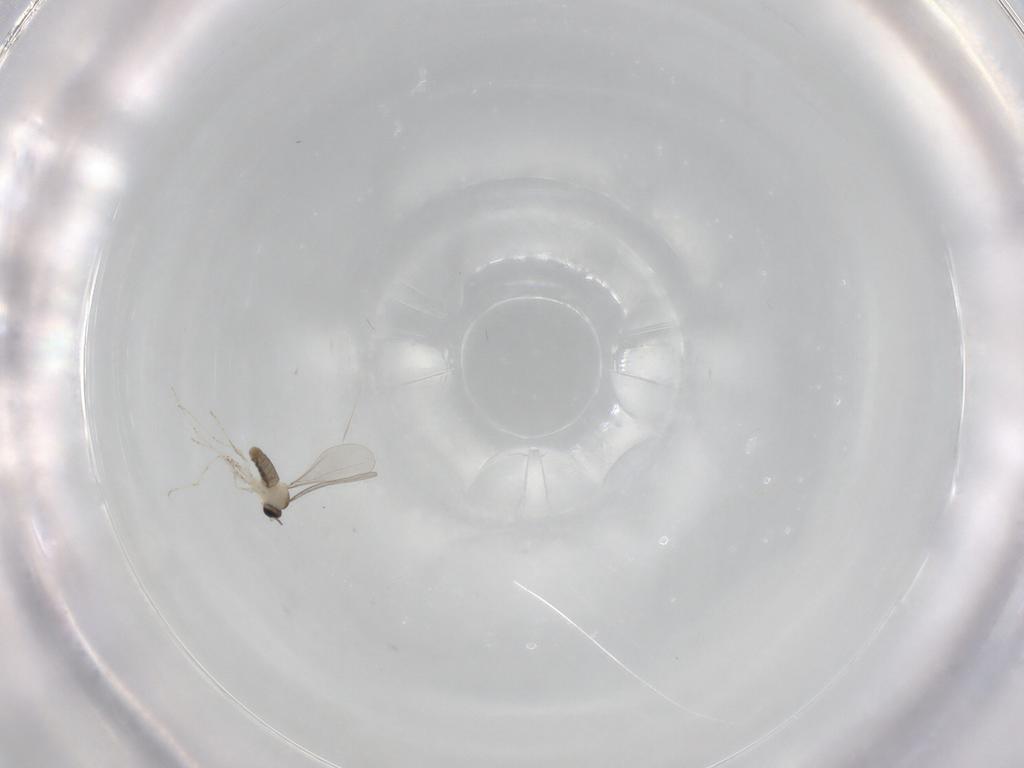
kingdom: Animalia
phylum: Arthropoda
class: Insecta
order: Diptera
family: Cecidomyiidae
